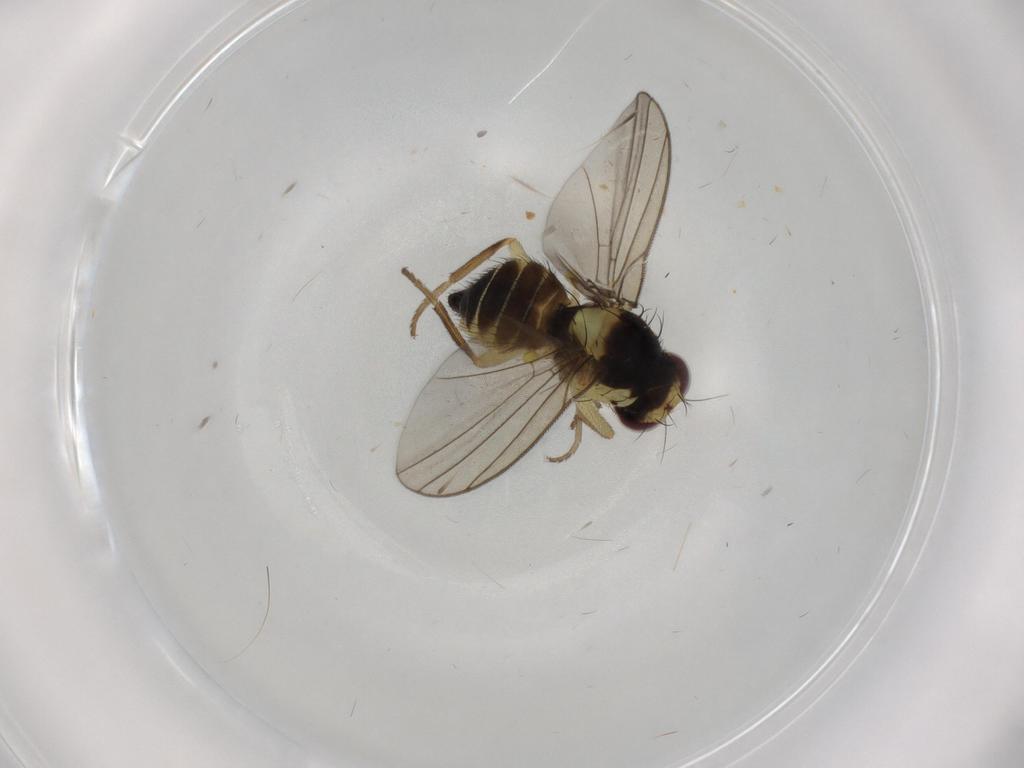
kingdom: Animalia
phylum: Arthropoda
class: Insecta
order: Diptera
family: Agromyzidae
